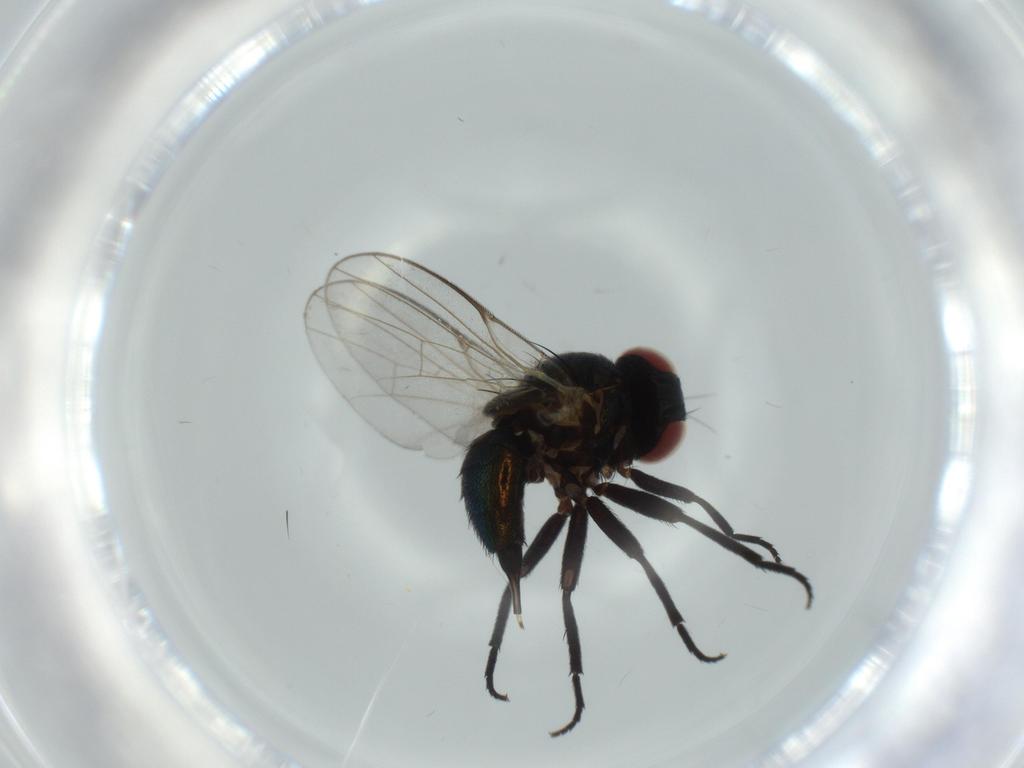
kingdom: Animalia
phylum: Arthropoda
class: Insecta
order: Diptera
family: Agromyzidae
